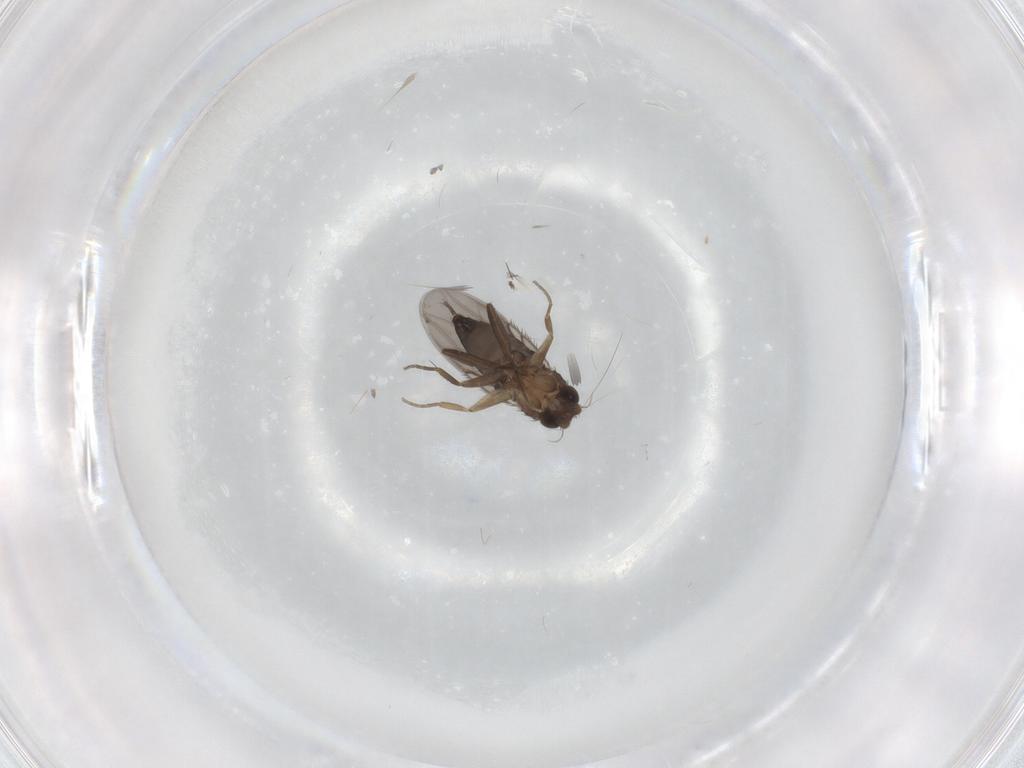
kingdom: Animalia
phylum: Arthropoda
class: Insecta
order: Diptera
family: Phoridae
